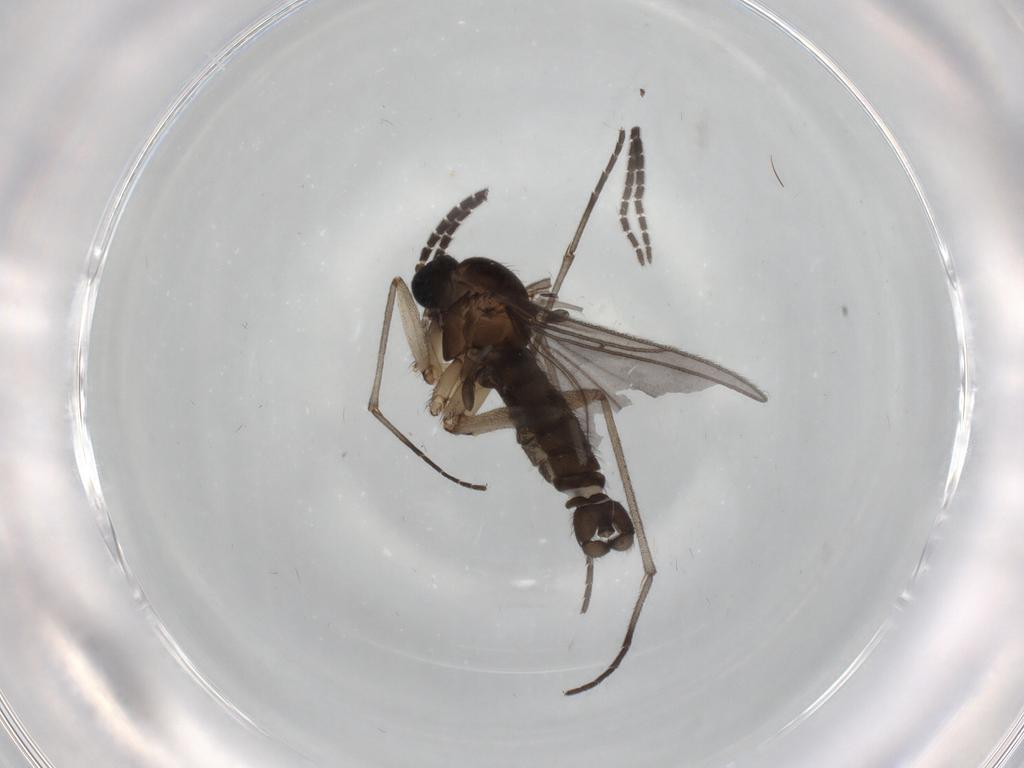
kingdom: Animalia
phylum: Arthropoda
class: Insecta
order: Diptera
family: Sciaridae
